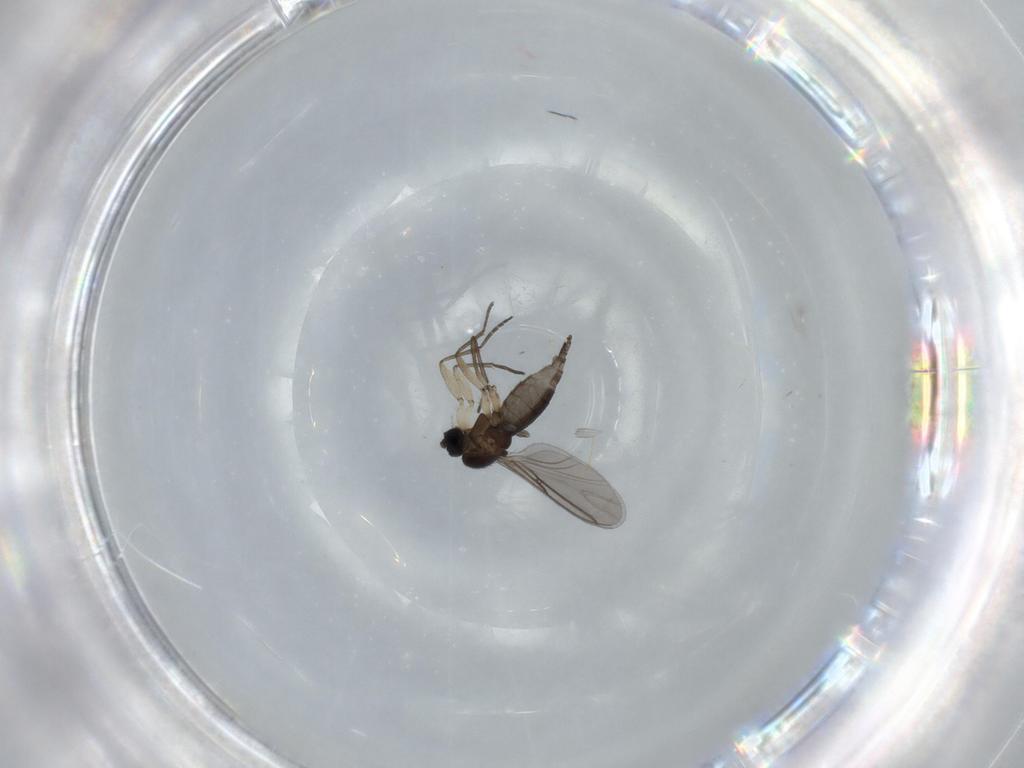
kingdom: Animalia
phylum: Arthropoda
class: Insecta
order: Diptera
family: Sciaridae
